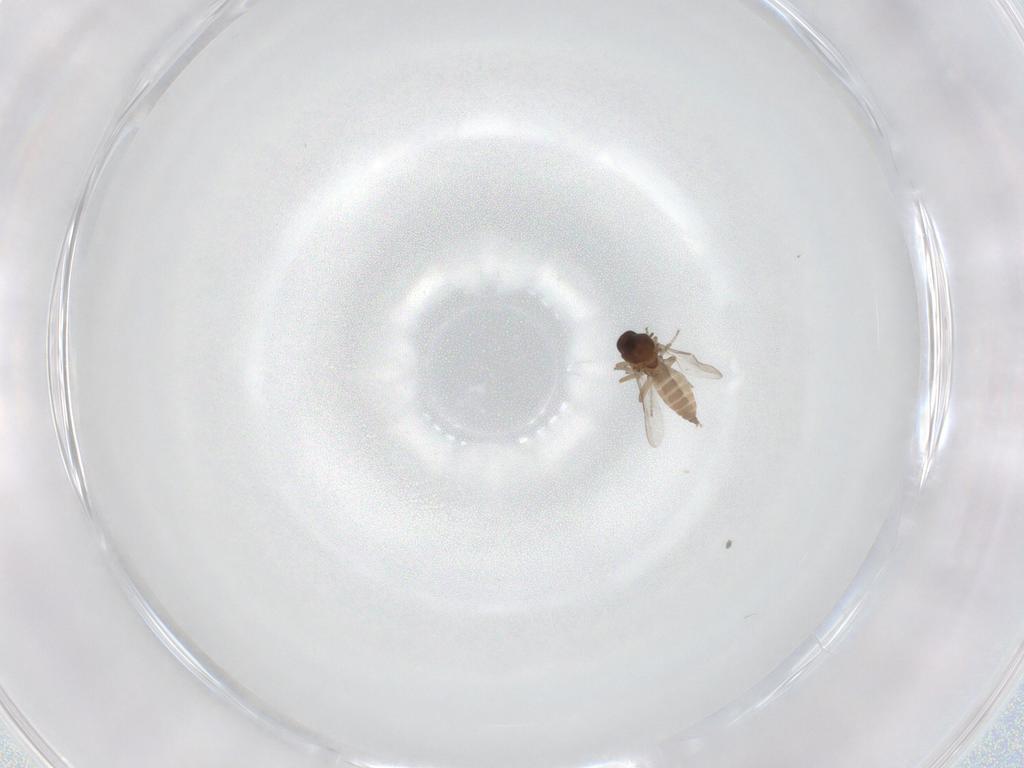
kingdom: Animalia
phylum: Arthropoda
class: Insecta
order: Diptera
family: Ceratopogonidae
